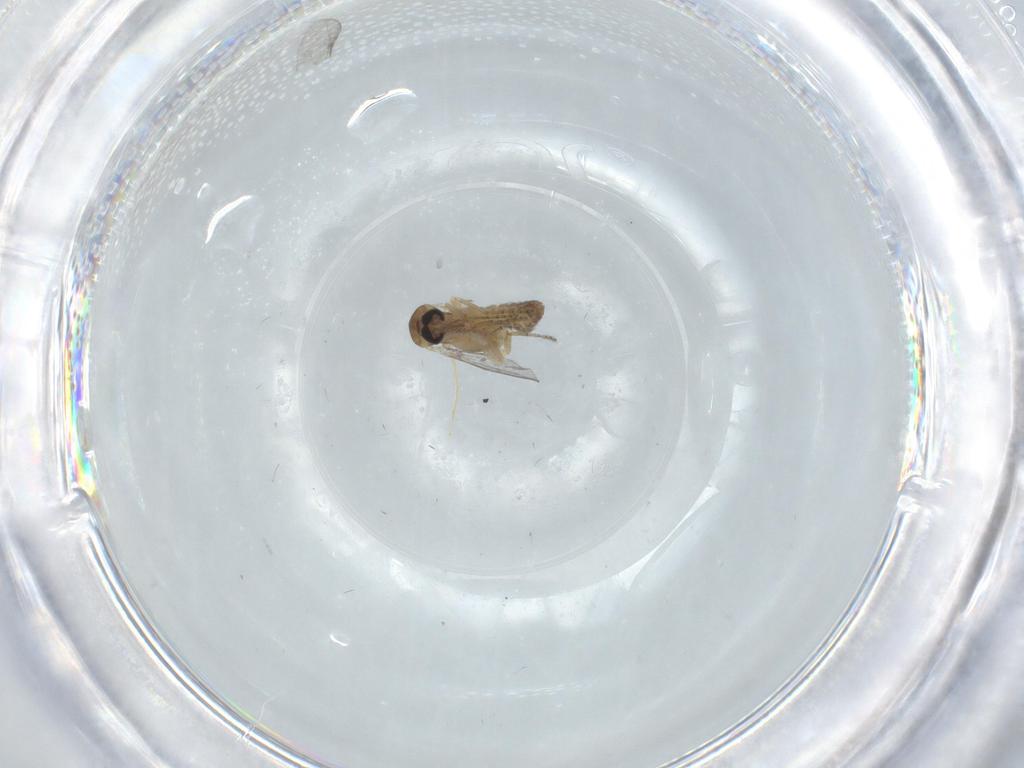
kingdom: Animalia
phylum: Arthropoda
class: Insecta
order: Diptera
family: Ceratopogonidae
